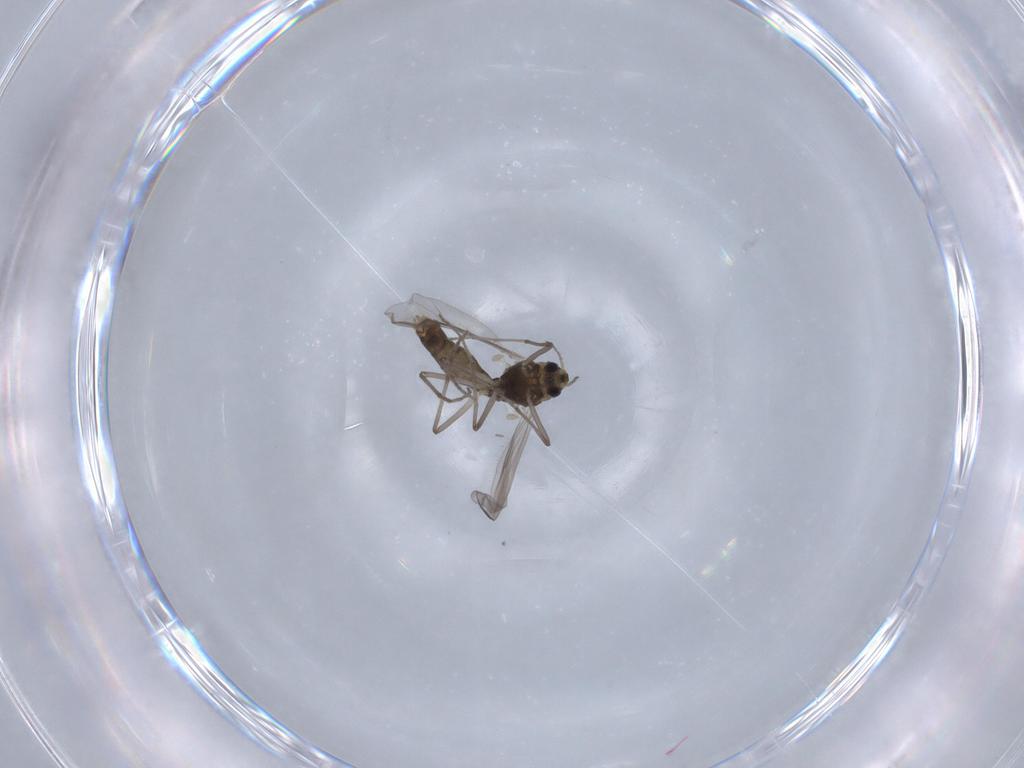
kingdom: Animalia
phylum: Arthropoda
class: Insecta
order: Diptera
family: Chironomidae
